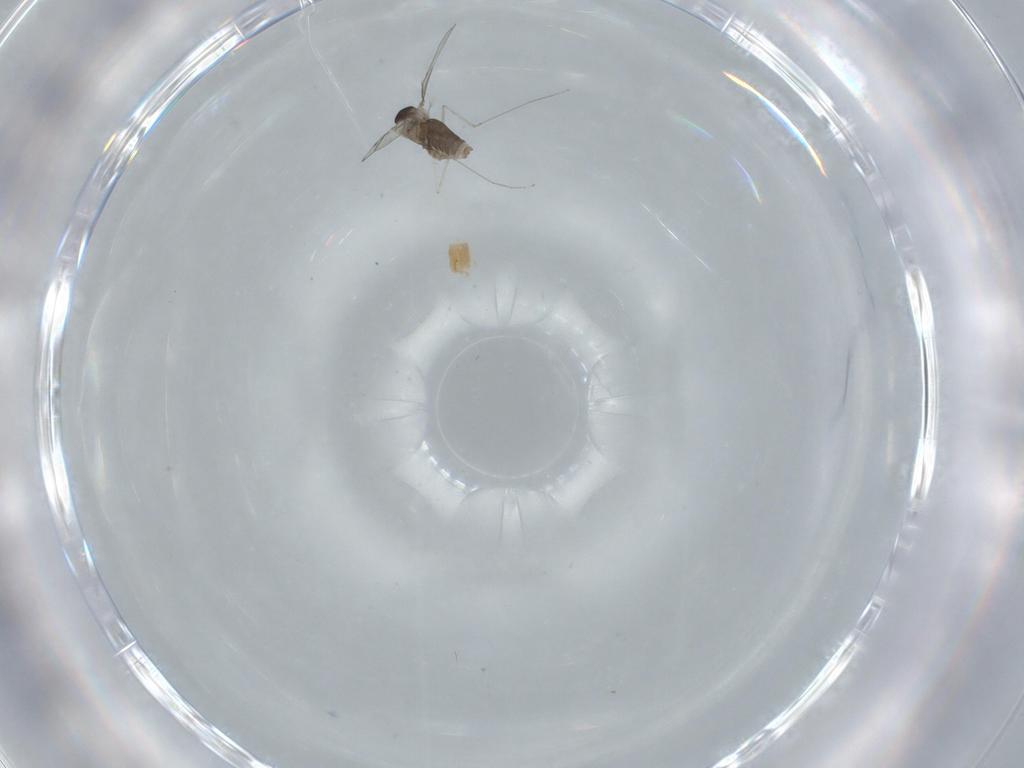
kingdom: Animalia
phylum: Arthropoda
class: Insecta
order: Diptera
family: Cecidomyiidae
